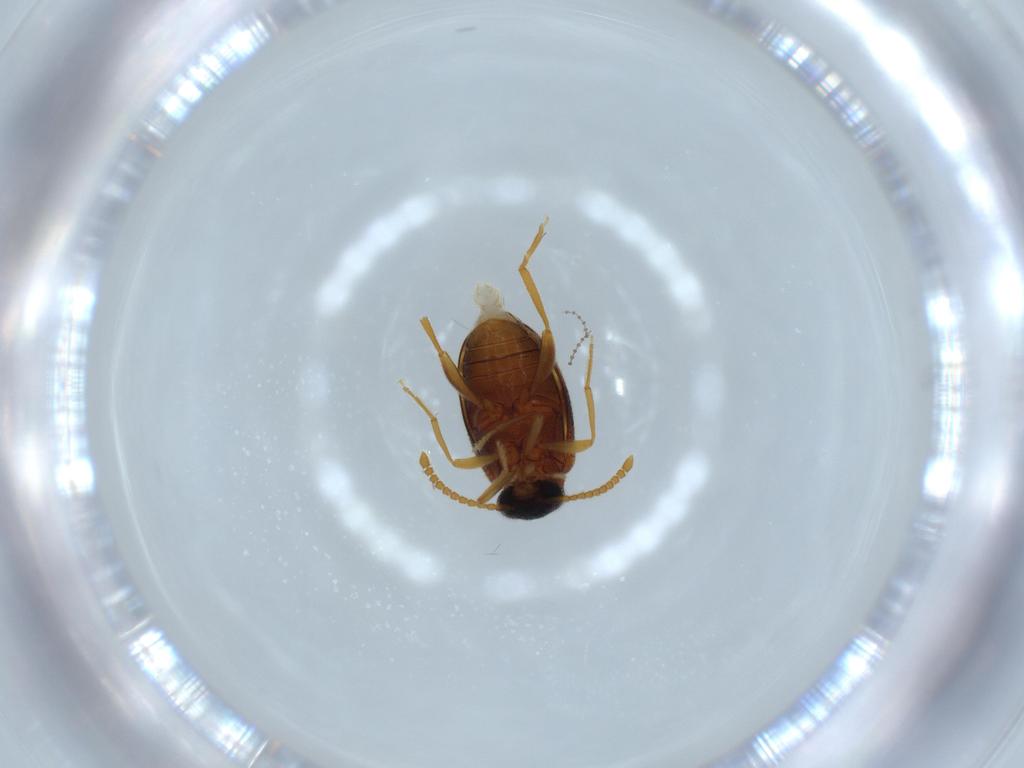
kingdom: Animalia
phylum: Arthropoda
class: Insecta
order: Coleoptera
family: Aderidae
